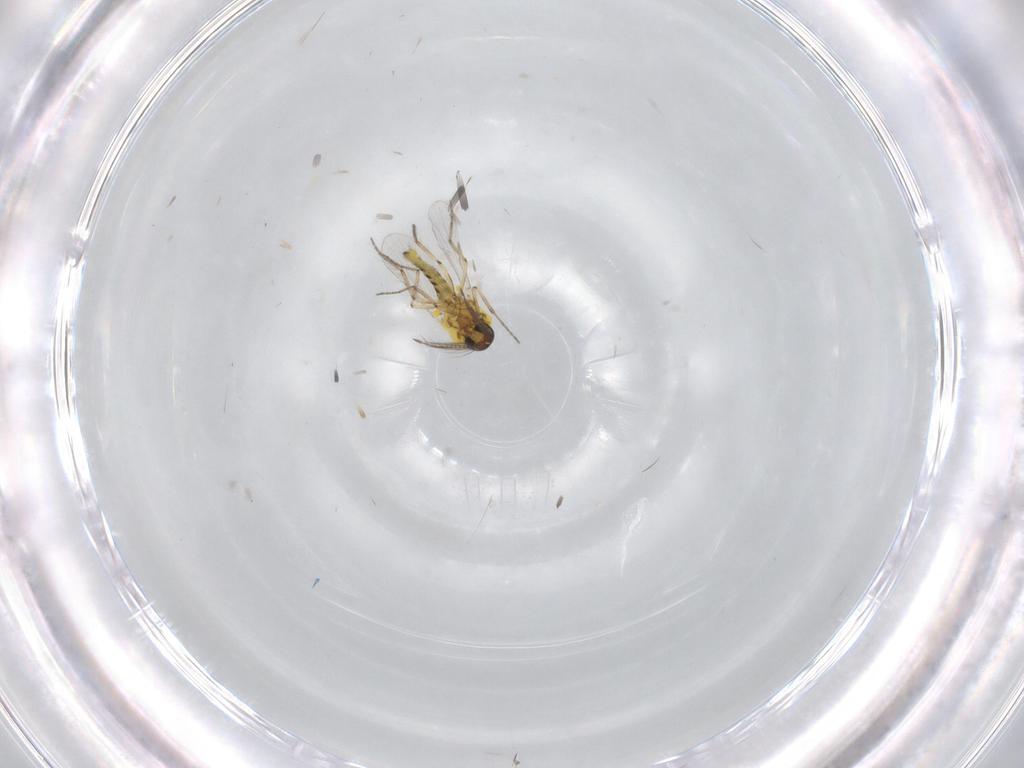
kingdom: Animalia
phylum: Arthropoda
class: Insecta
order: Diptera
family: Ceratopogonidae
